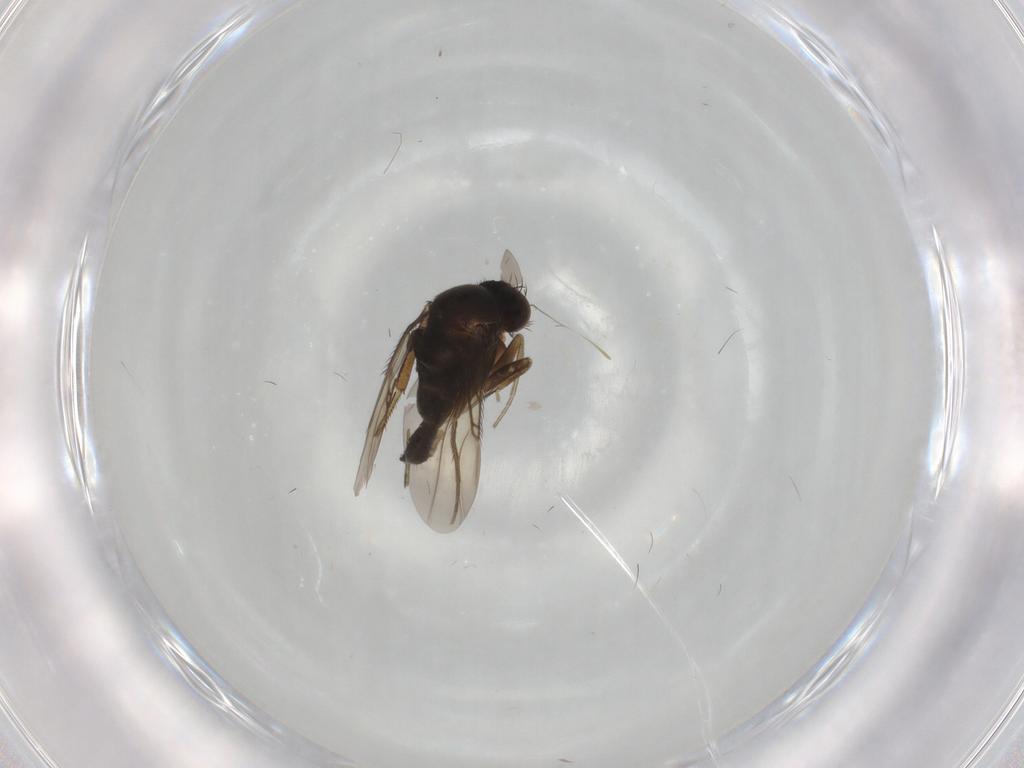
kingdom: Animalia
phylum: Arthropoda
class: Insecta
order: Diptera
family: Phoridae
